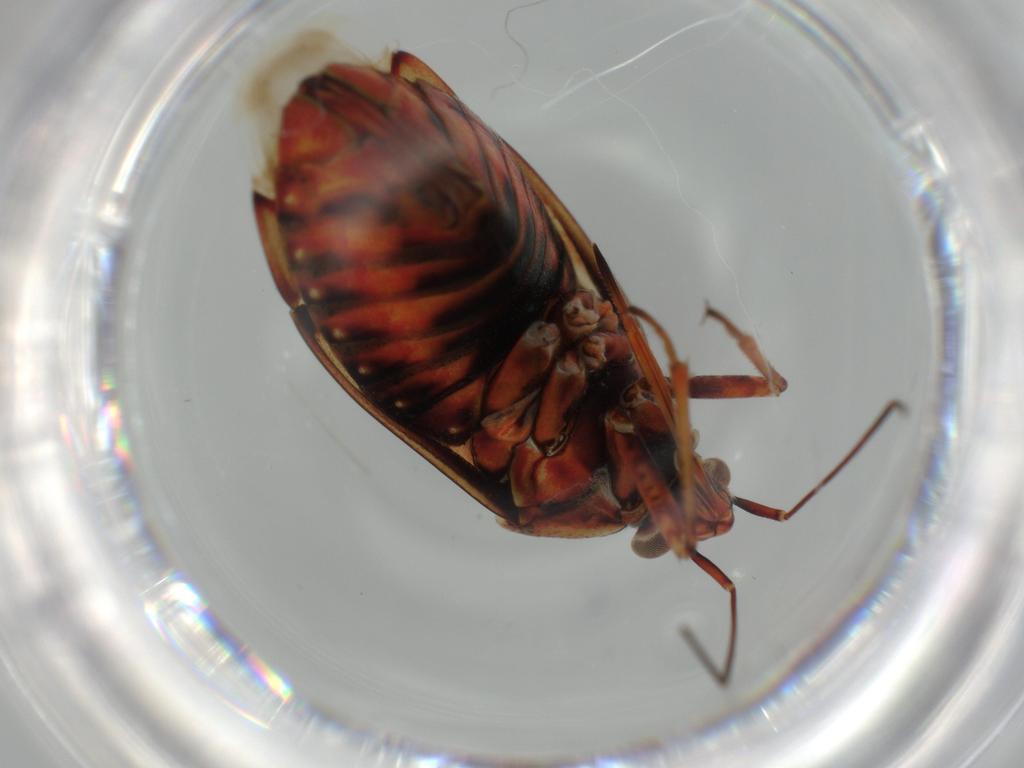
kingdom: Animalia
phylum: Arthropoda
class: Insecta
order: Hemiptera
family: Miridae
